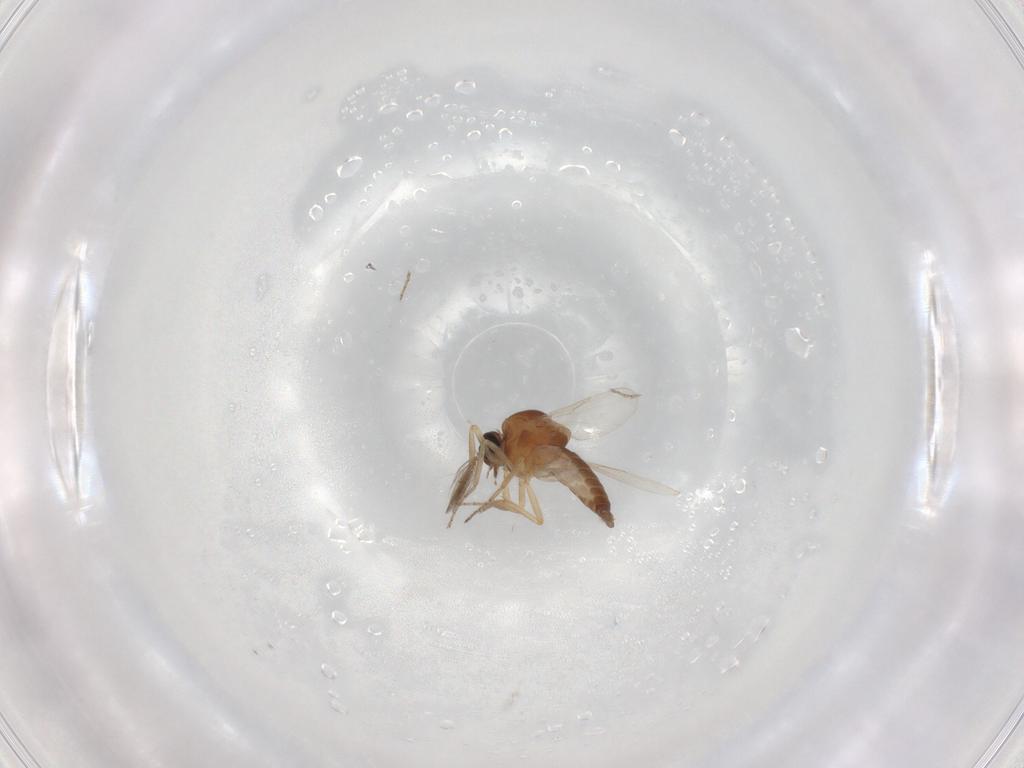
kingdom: Animalia
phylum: Arthropoda
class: Insecta
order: Diptera
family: Ceratopogonidae
